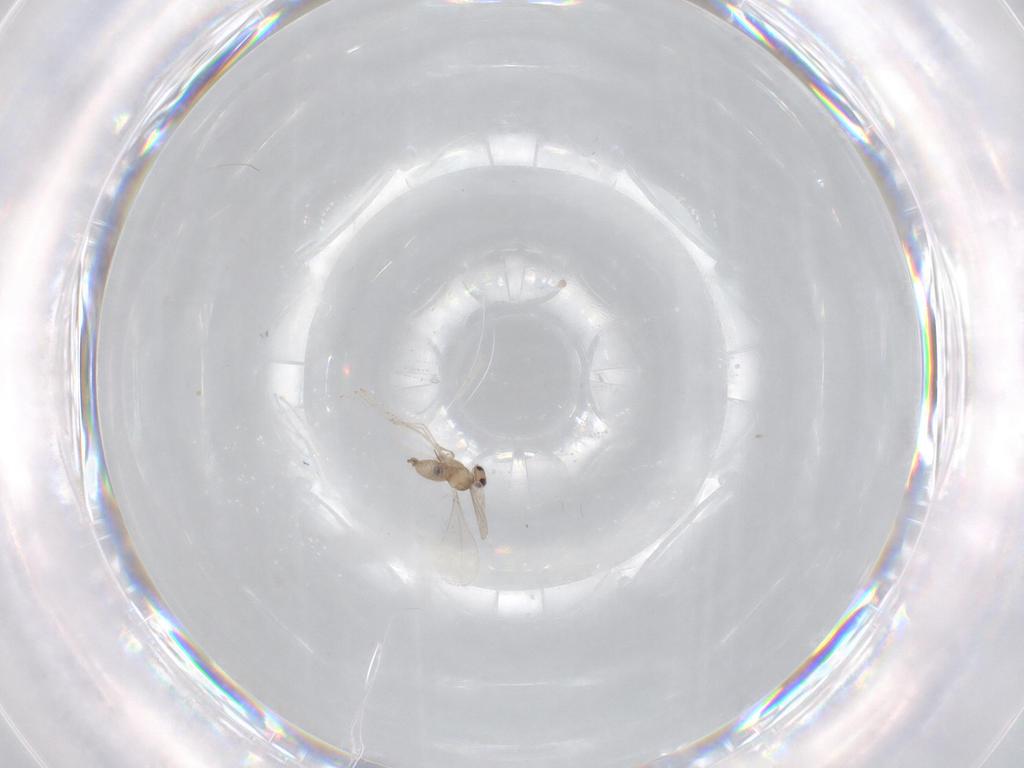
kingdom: Animalia
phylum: Arthropoda
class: Insecta
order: Diptera
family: Cecidomyiidae
